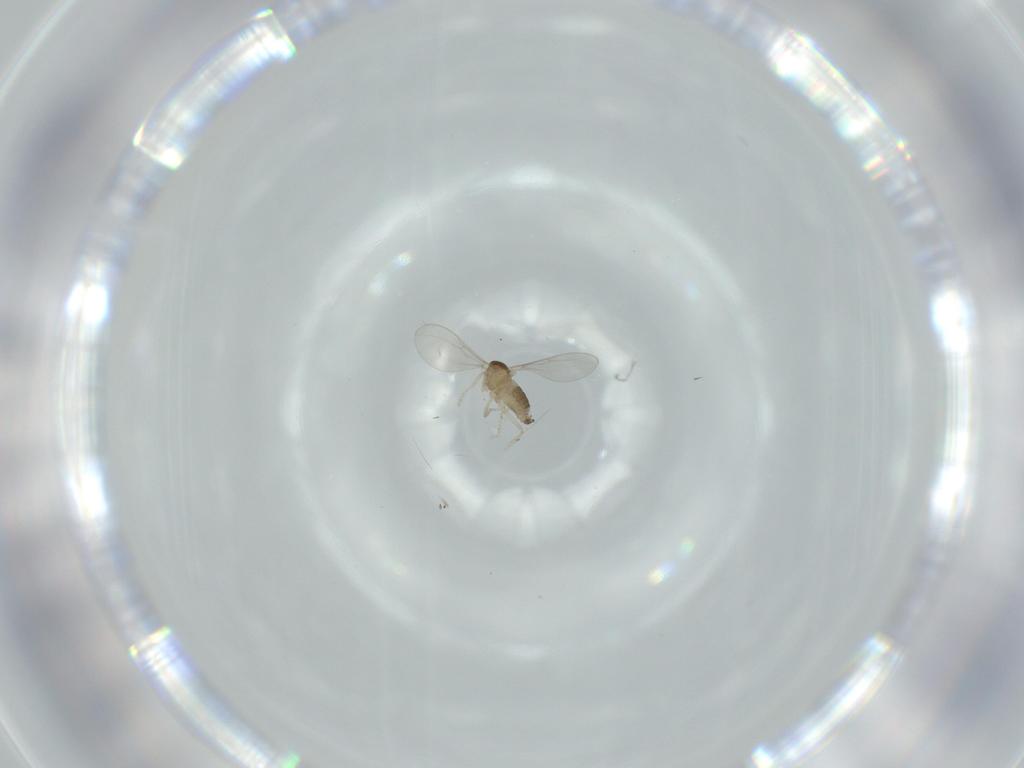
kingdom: Animalia
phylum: Arthropoda
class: Insecta
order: Diptera
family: Cecidomyiidae
